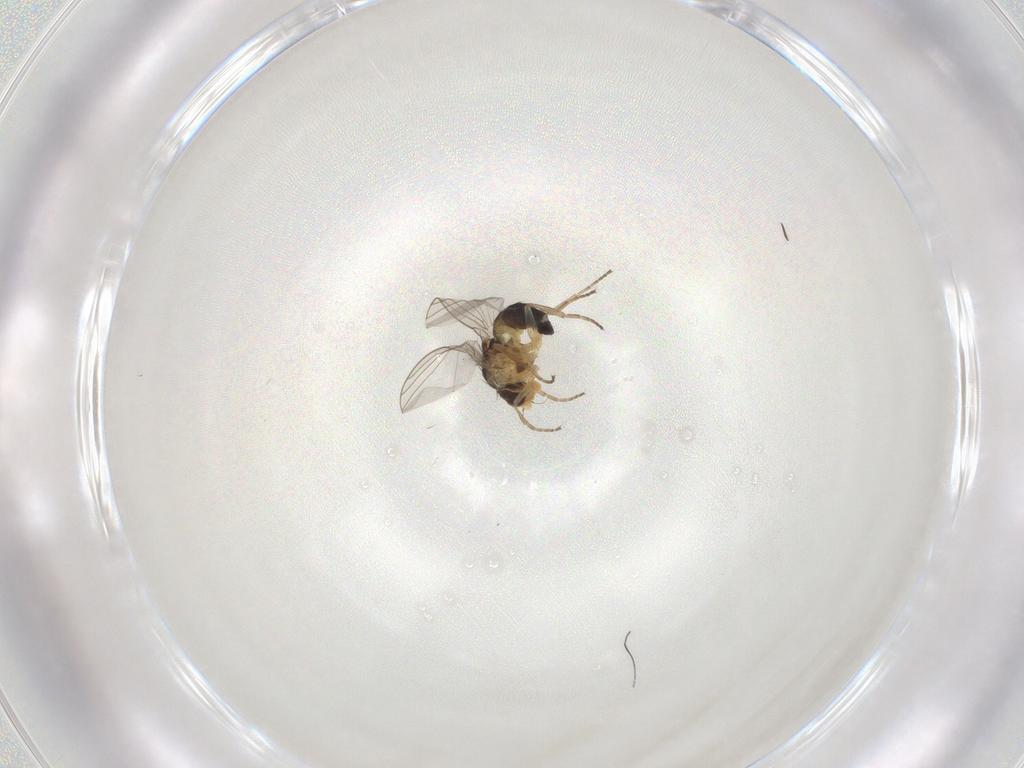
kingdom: Animalia
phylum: Arthropoda
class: Insecta
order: Diptera
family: Agromyzidae
